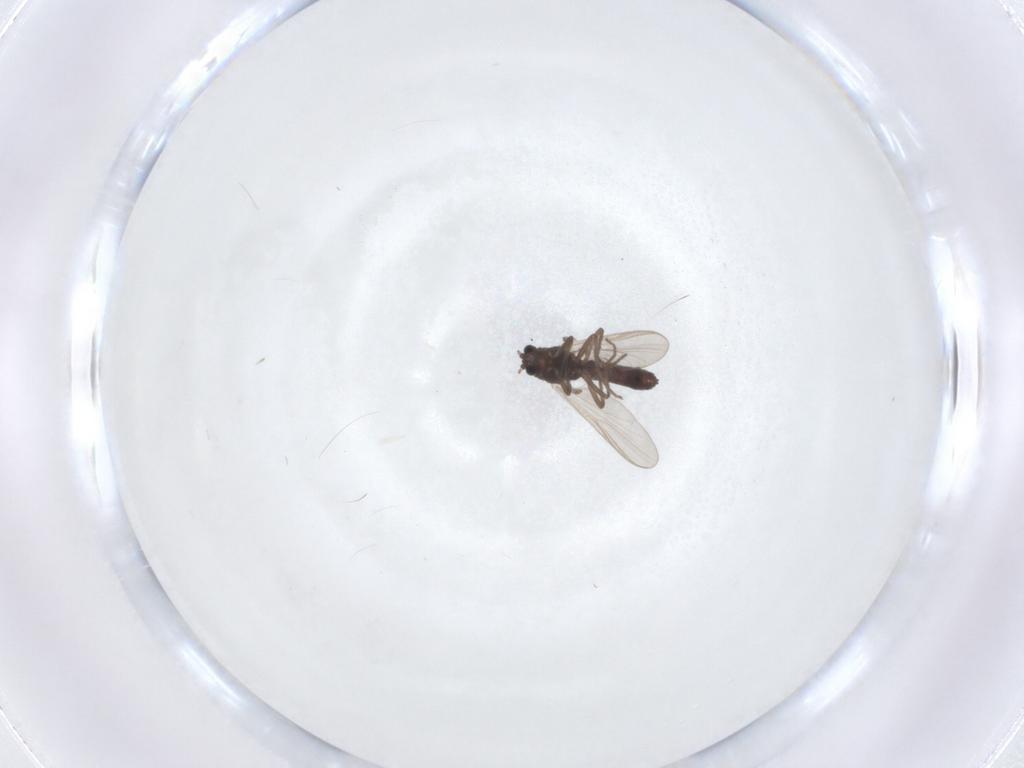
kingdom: Animalia
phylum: Arthropoda
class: Insecta
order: Diptera
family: Chironomidae
